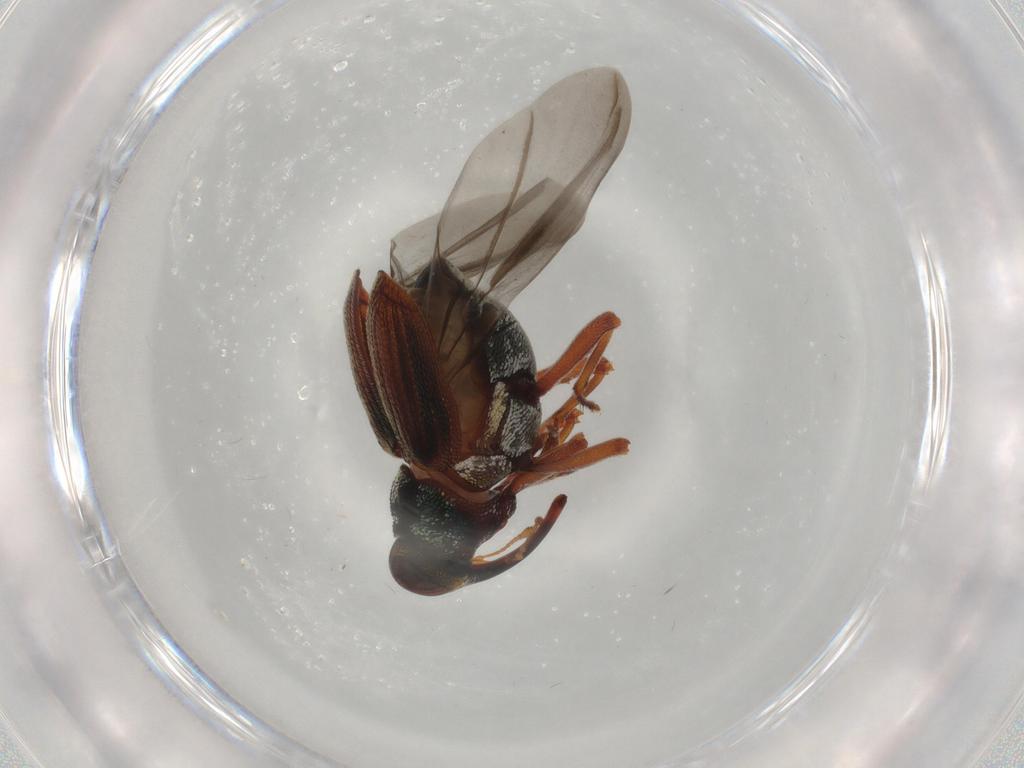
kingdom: Animalia
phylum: Arthropoda
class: Insecta
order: Coleoptera
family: Curculionidae
